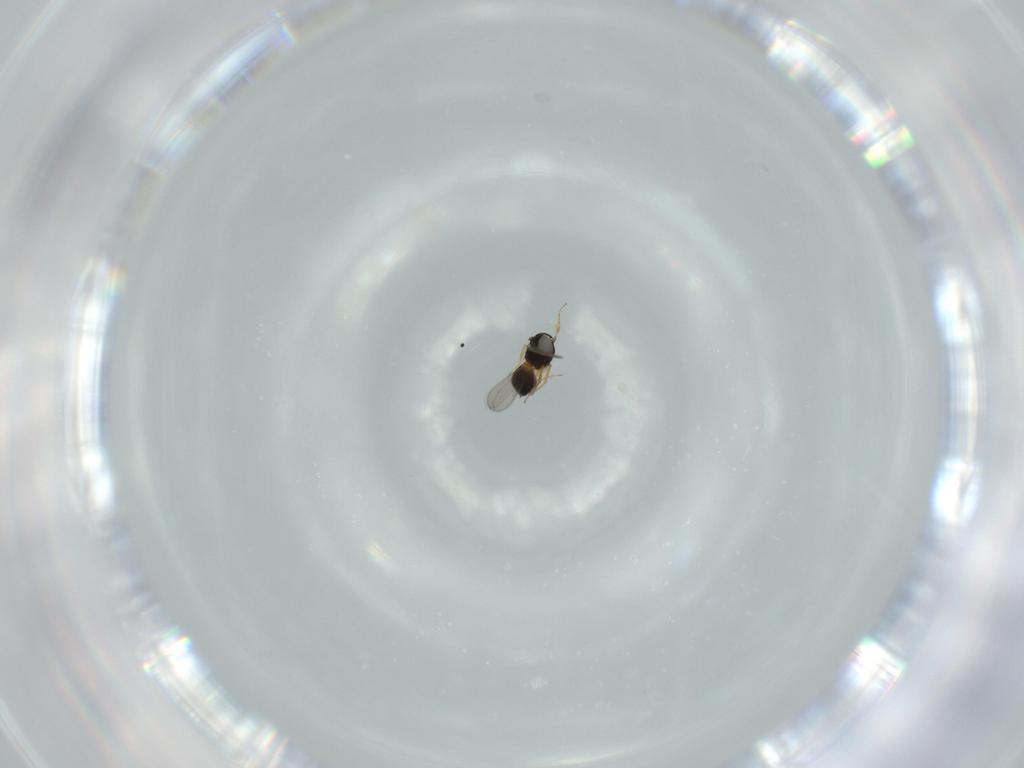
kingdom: Animalia
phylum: Arthropoda
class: Insecta
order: Hymenoptera
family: Scelionidae
